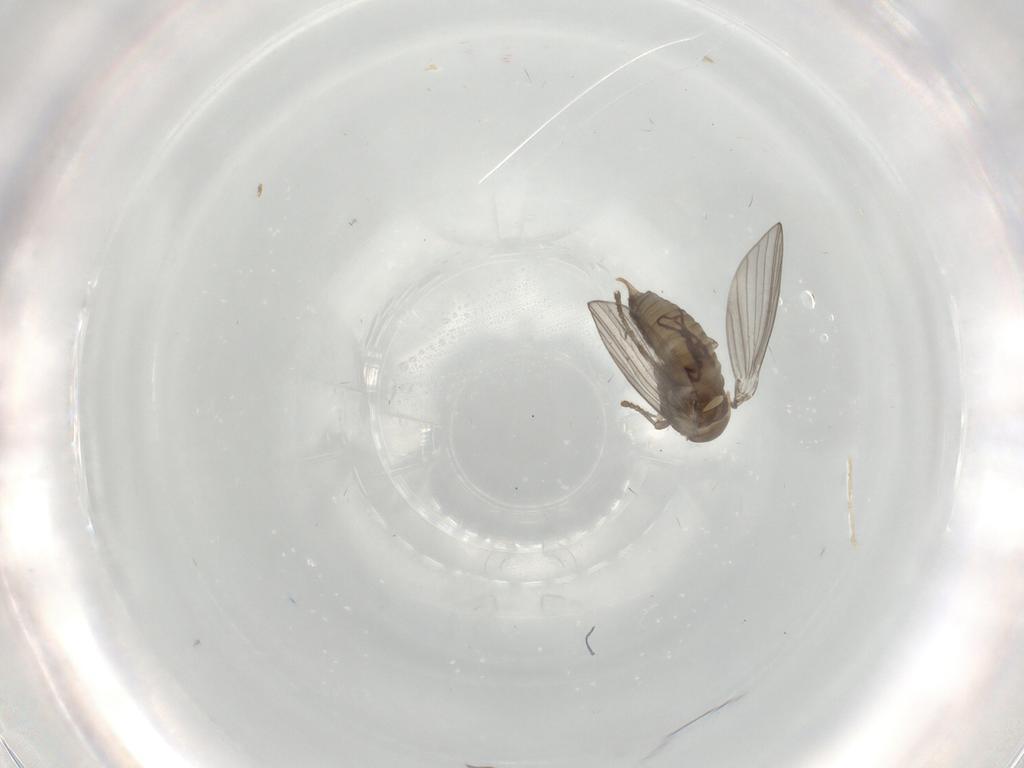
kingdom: Animalia
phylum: Arthropoda
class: Insecta
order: Diptera
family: Psychodidae
